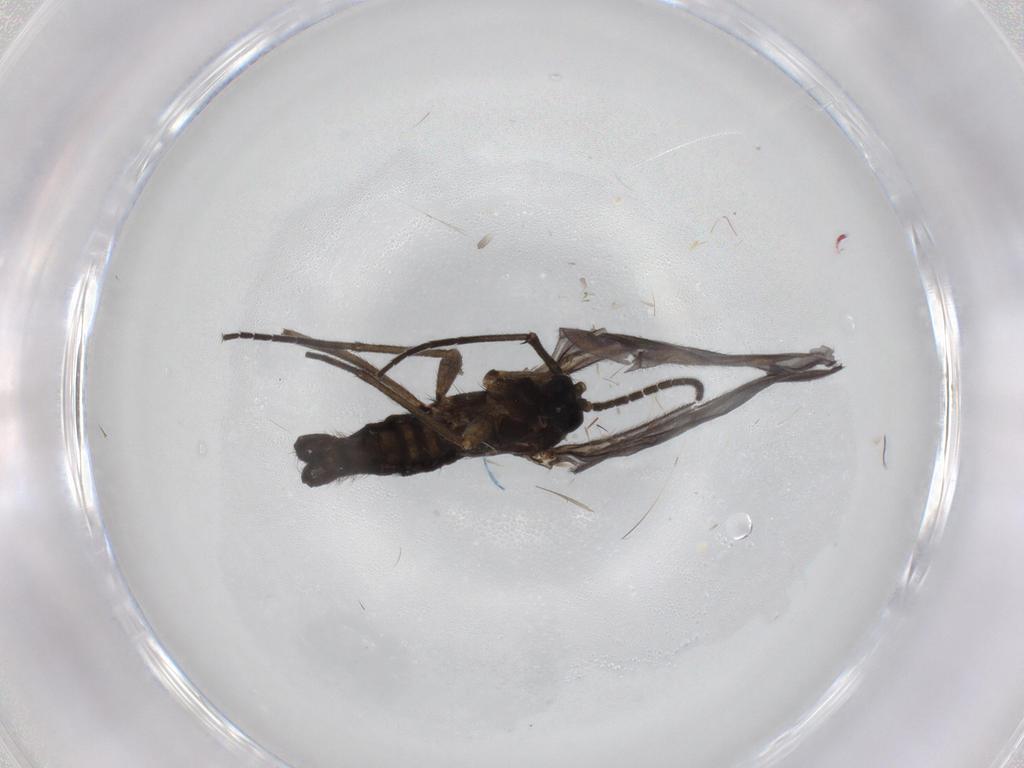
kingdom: Animalia
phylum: Arthropoda
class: Insecta
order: Diptera
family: Sciaridae
